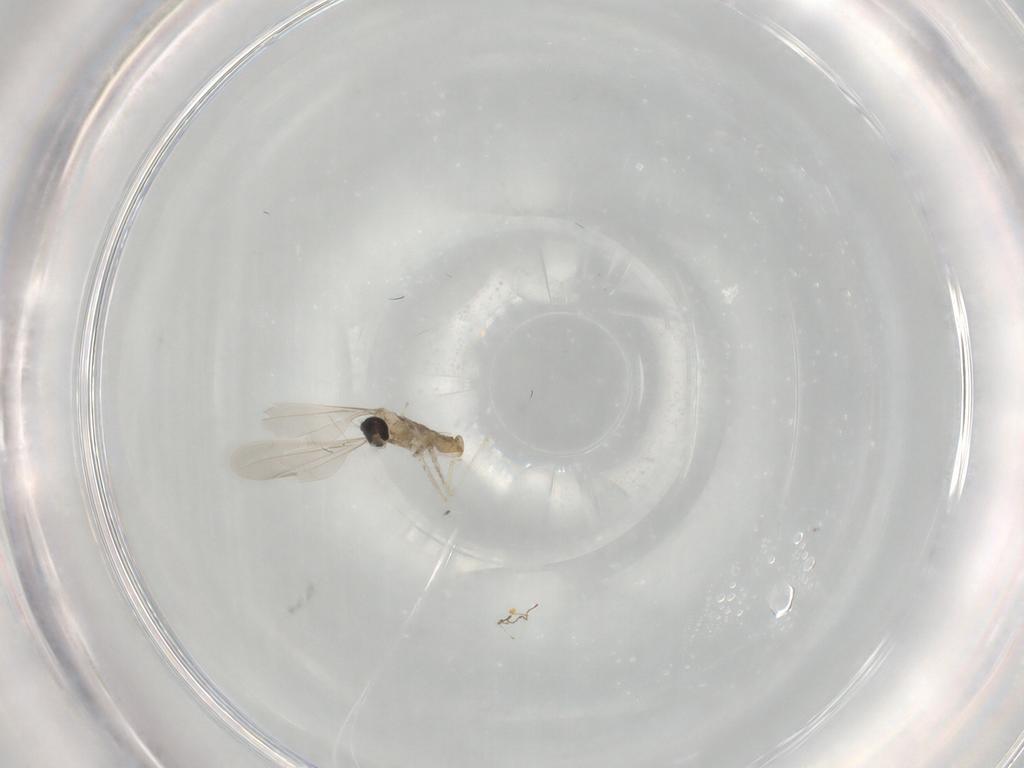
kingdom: Animalia
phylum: Arthropoda
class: Insecta
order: Diptera
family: Cecidomyiidae
